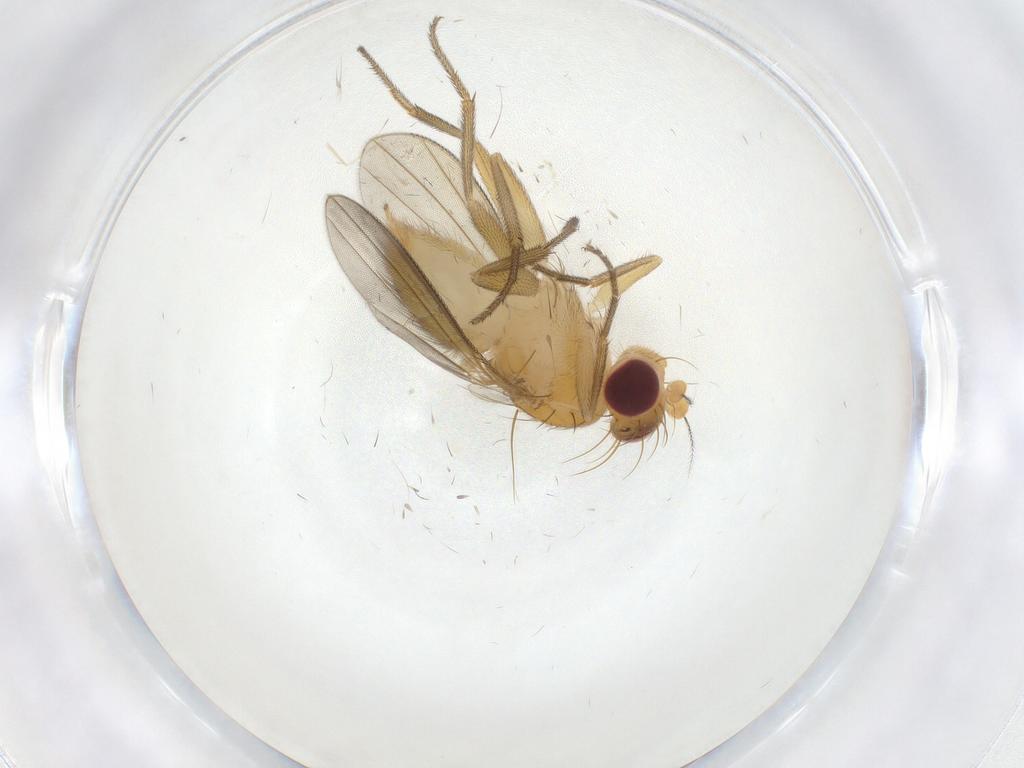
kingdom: Animalia
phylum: Arthropoda
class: Insecta
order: Diptera
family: Clusiidae
